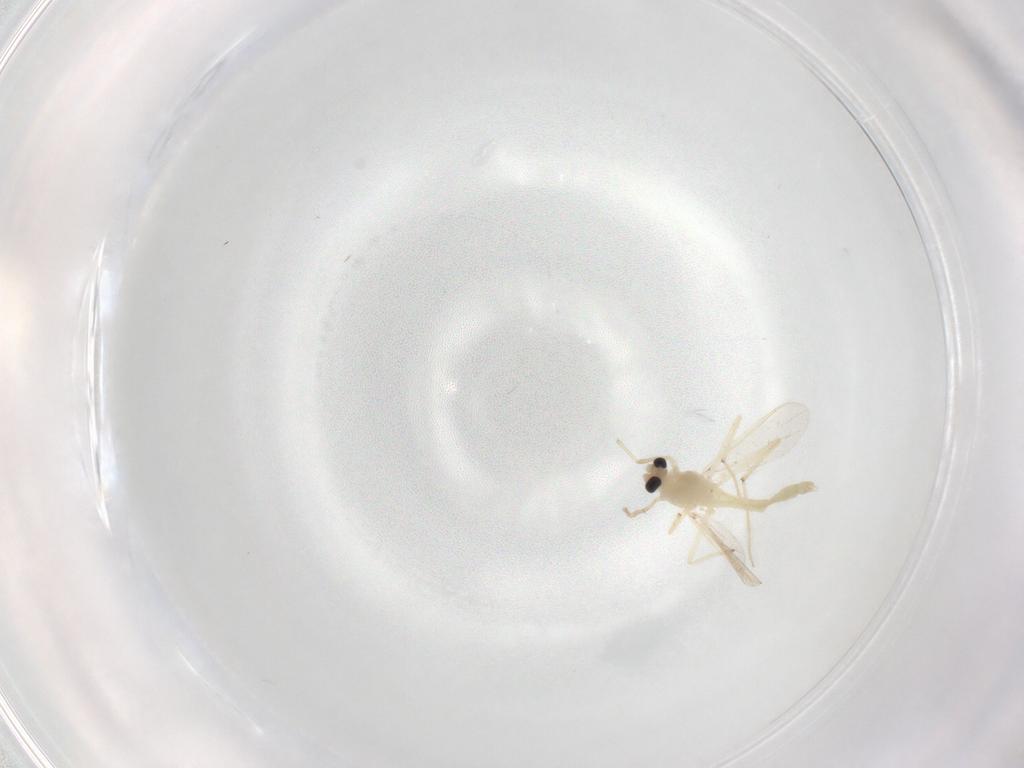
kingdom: Animalia
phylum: Arthropoda
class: Insecta
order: Diptera
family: Chironomidae
